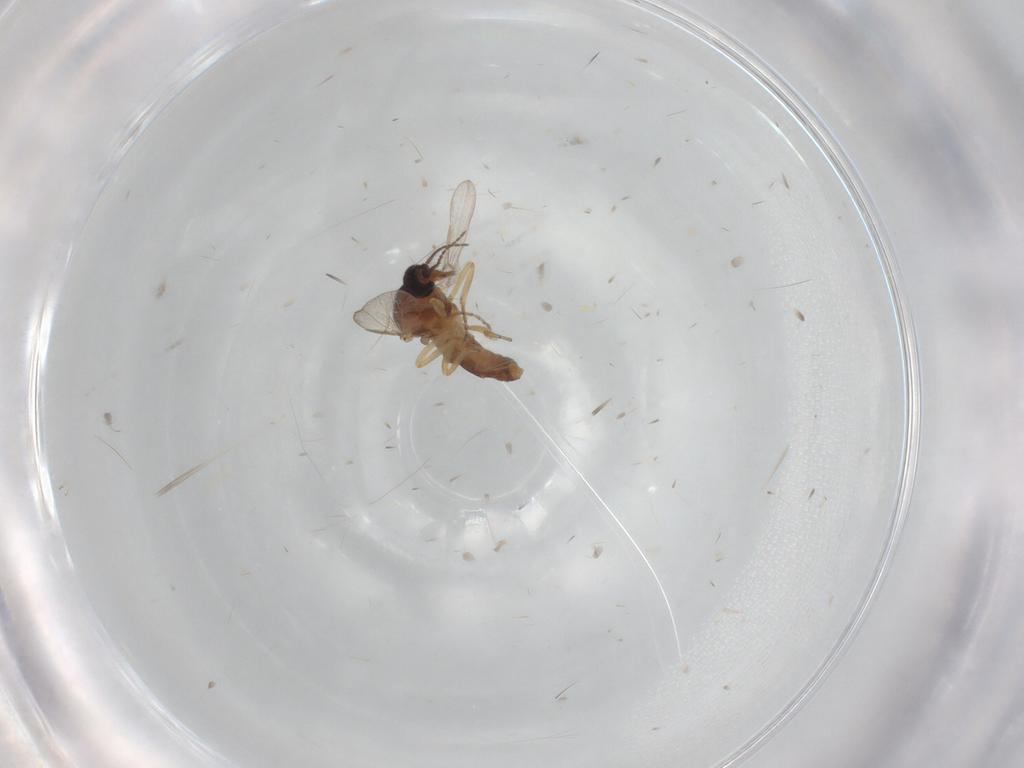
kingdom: Animalia
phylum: Arthropoda
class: Insecta
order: Diptera
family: Ceratopogonidae
